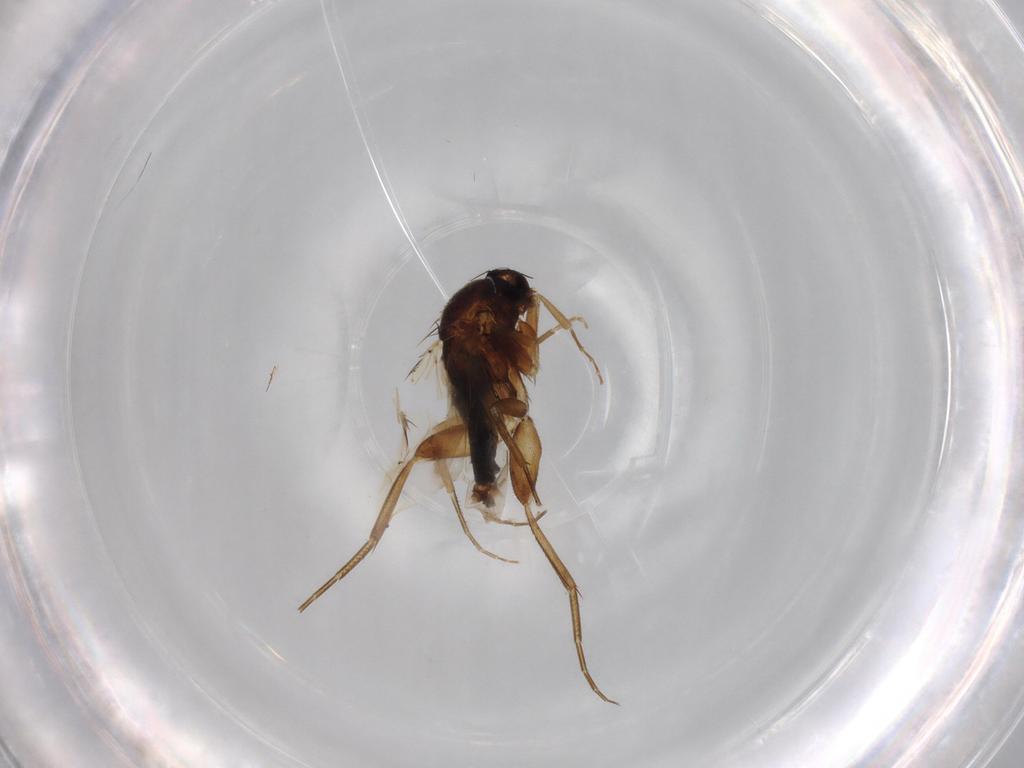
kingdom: Animalia
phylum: Arthropoda
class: Insecta
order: Diptera
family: Phoridae
